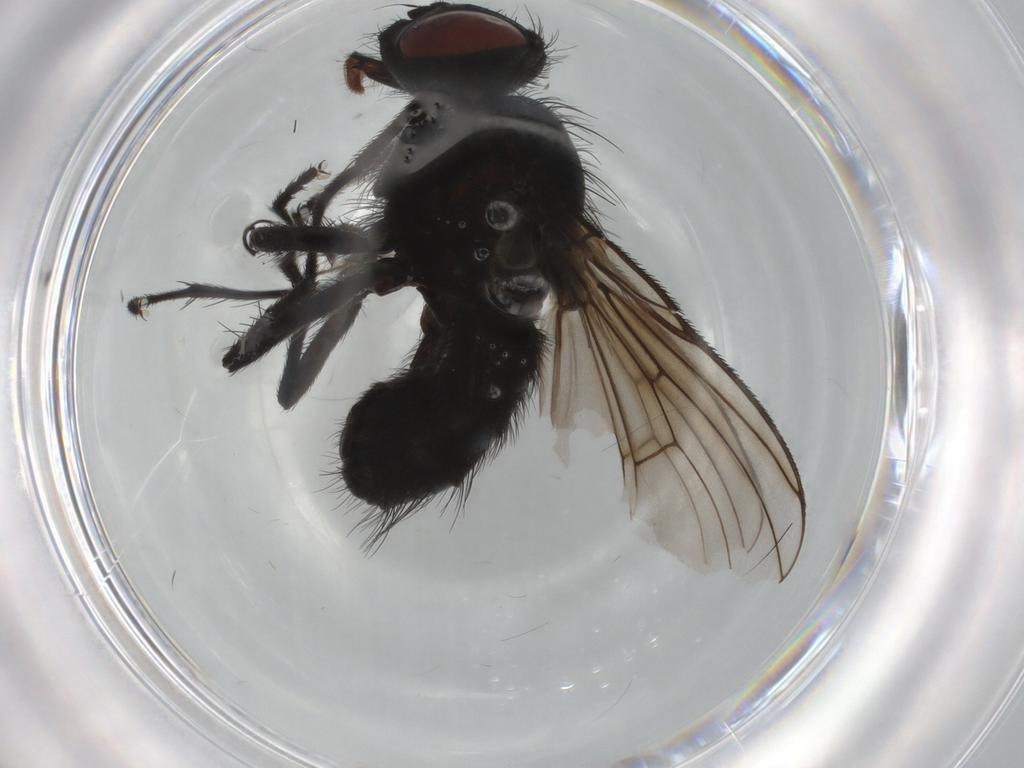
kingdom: Animalia
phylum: Arthropoda
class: Insecta
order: Diptera
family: Muscidae
